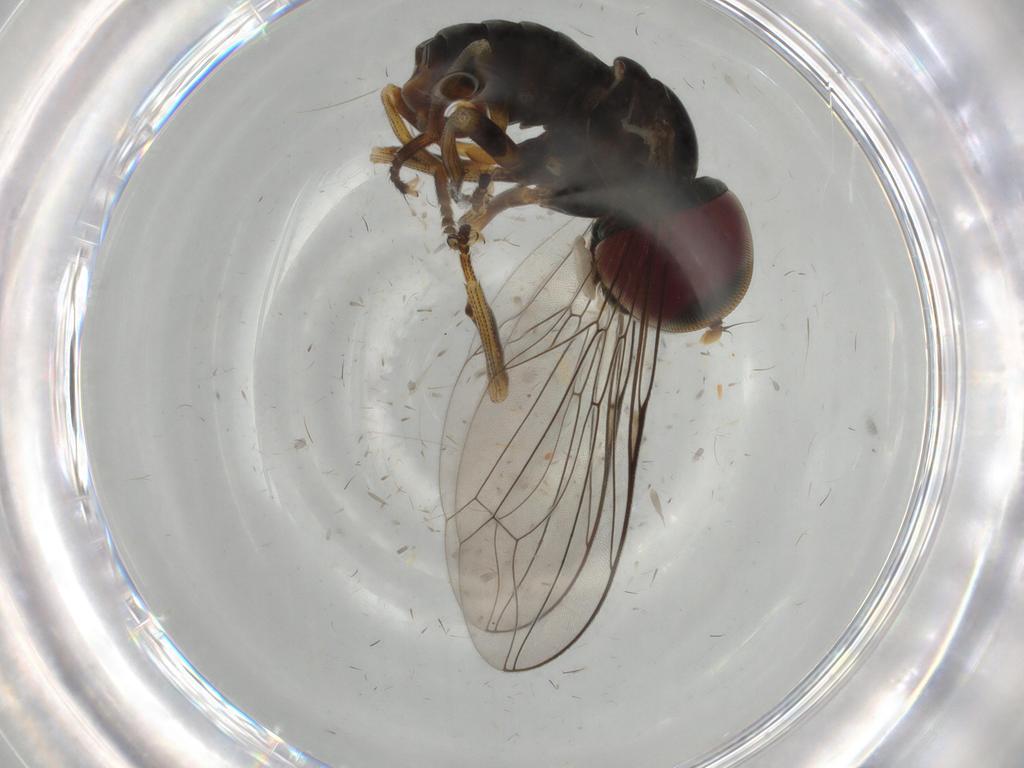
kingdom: Animalia
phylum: Arthropoda
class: Insecta
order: Diptera
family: Pipunculidae
